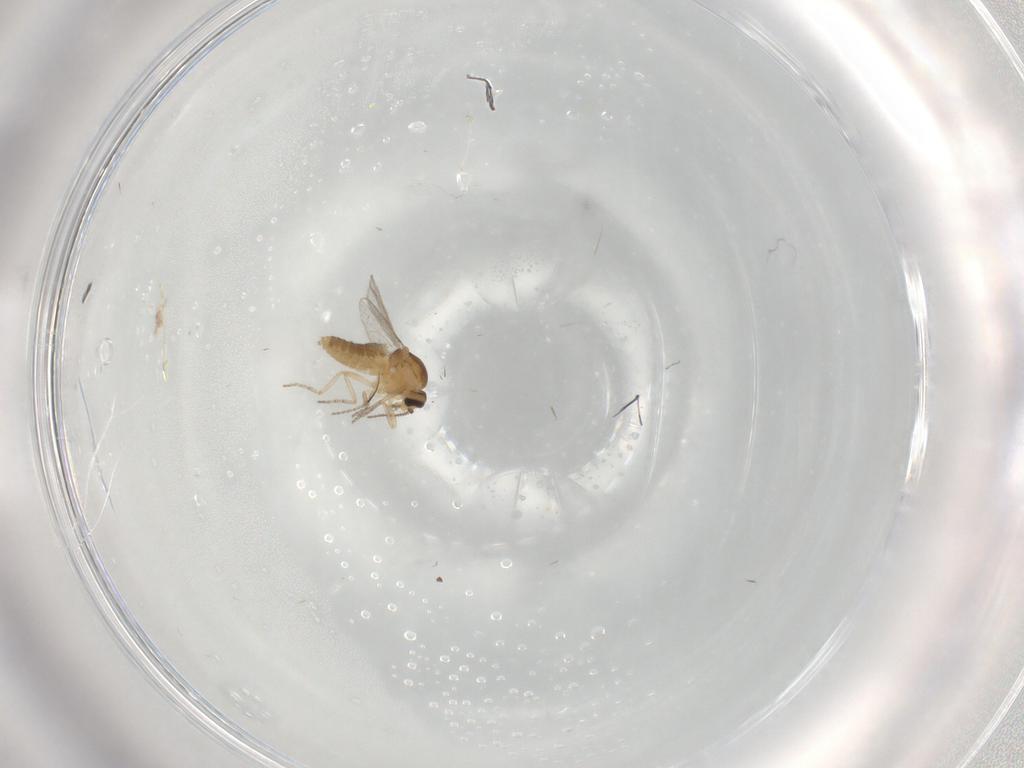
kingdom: Animalia
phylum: Arthropoda
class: Insecta
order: Diptera
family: Ceratopogonidae
